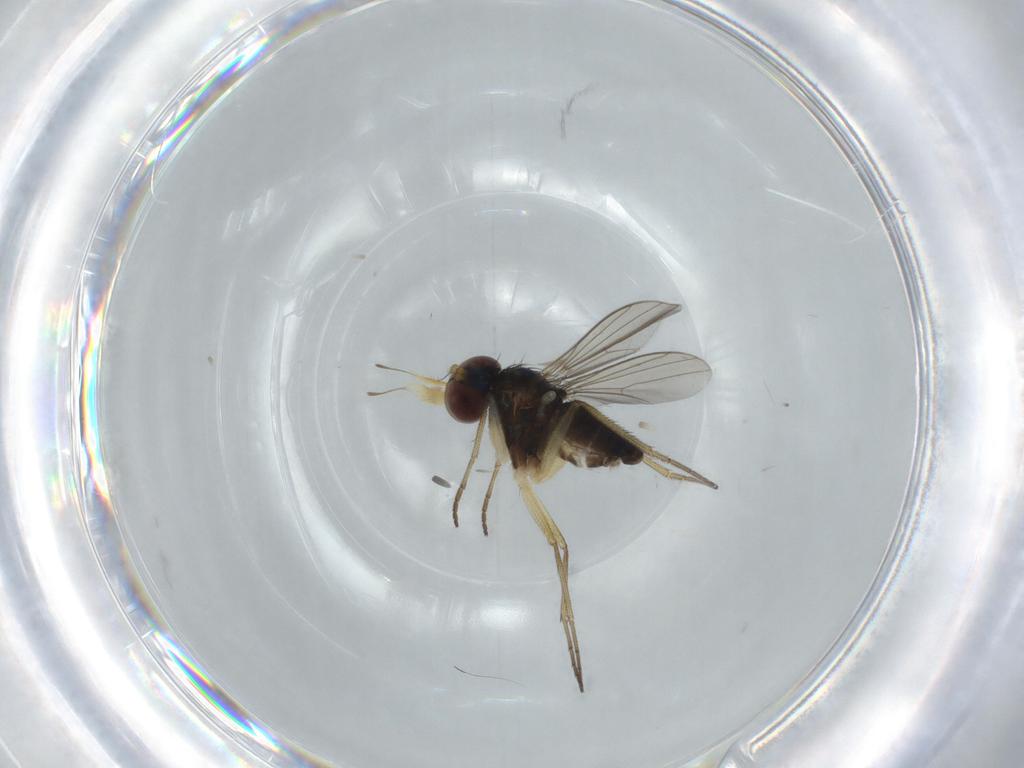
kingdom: Animalia
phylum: Arthropoda
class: Insecta
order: Diptera
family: Dolichopodidae
